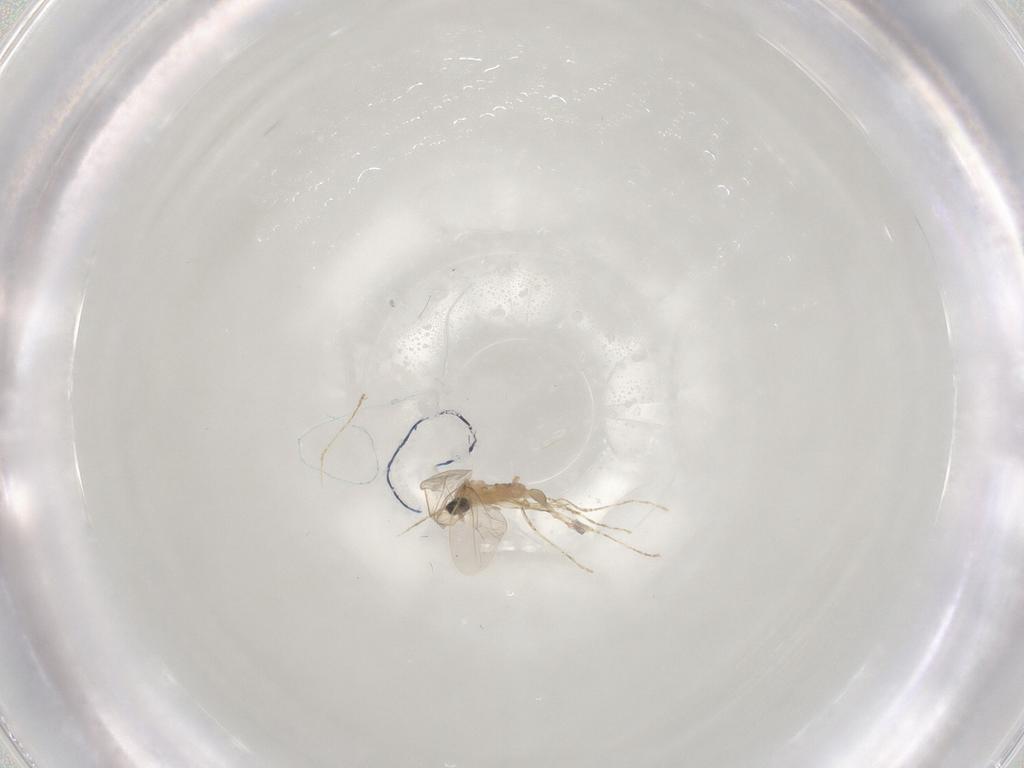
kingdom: Animalia
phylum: Arthropoda
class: Insecta
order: Diptera
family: Cecidomyiidae
